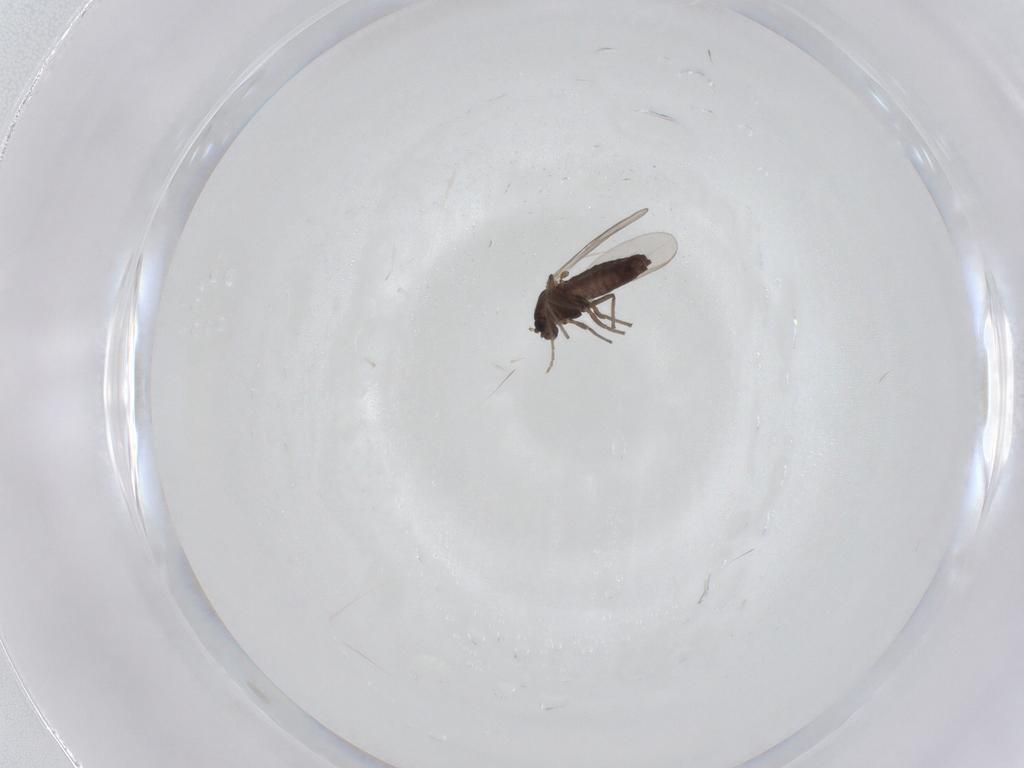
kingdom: Animalia
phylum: Arthropoda
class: Insecta
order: Diptera
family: Chironomidae
